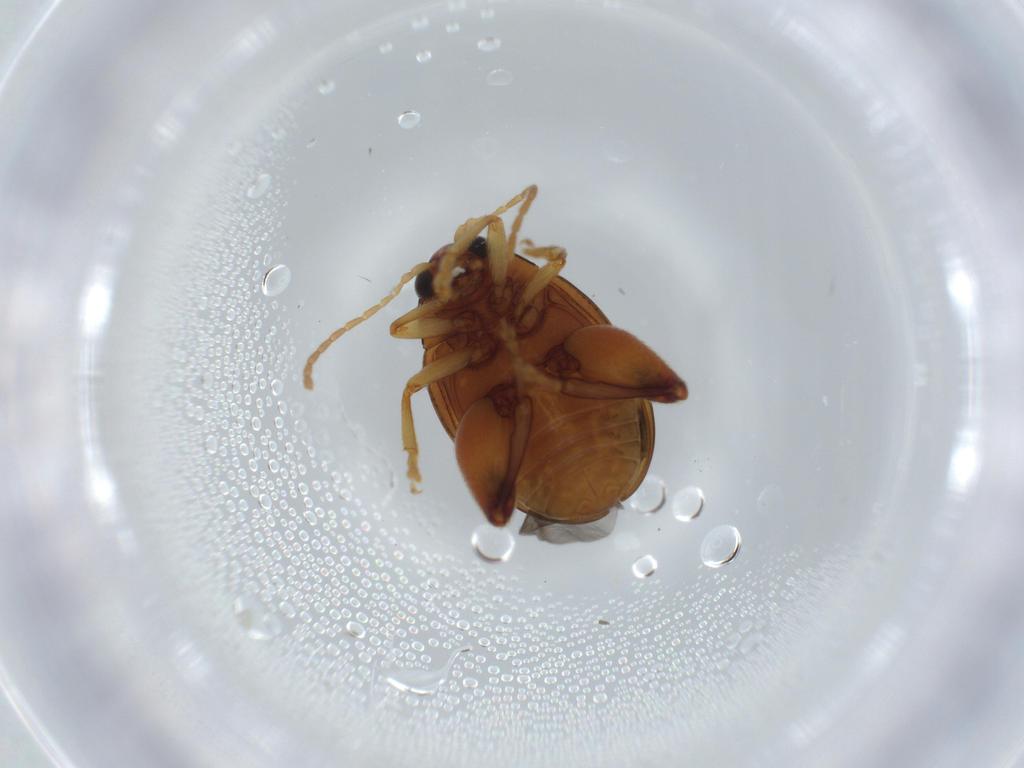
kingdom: Animalia
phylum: Arthropoda
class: Insecta
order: Coleoptera
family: Chrysomelidae
